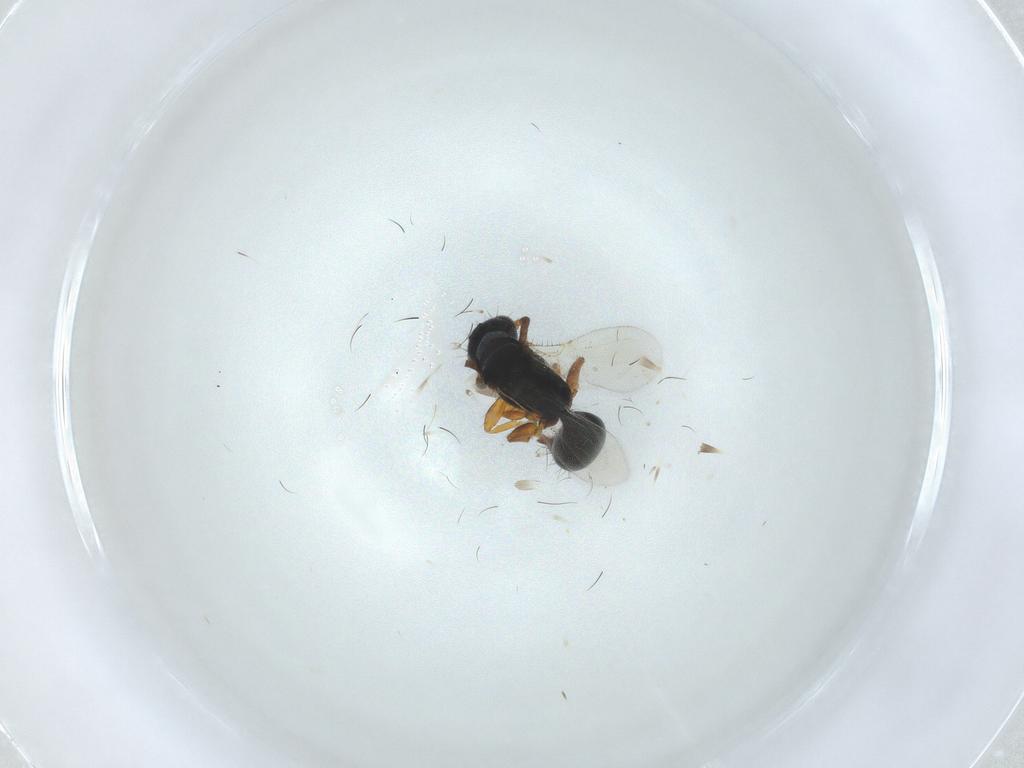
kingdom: Animalia
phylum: Arthropoda
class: Insecta
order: Hymenoptera
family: Bethylidae
